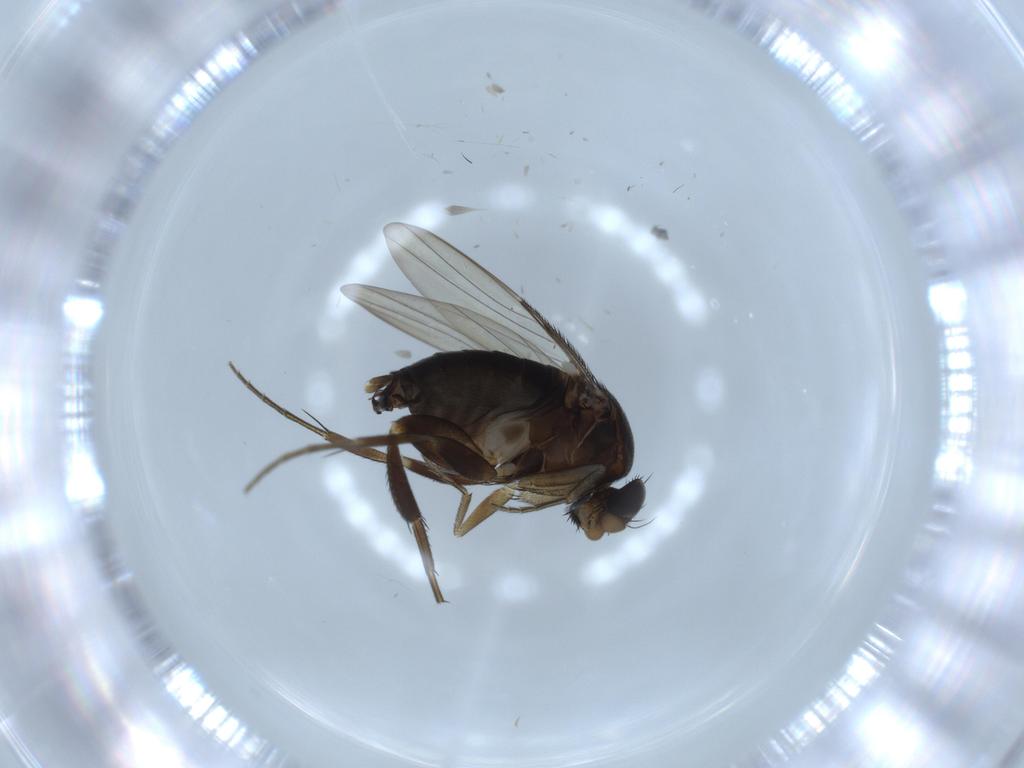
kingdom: Animalia
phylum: Arthropoda
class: Insecta
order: Diptera
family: Phoridae
